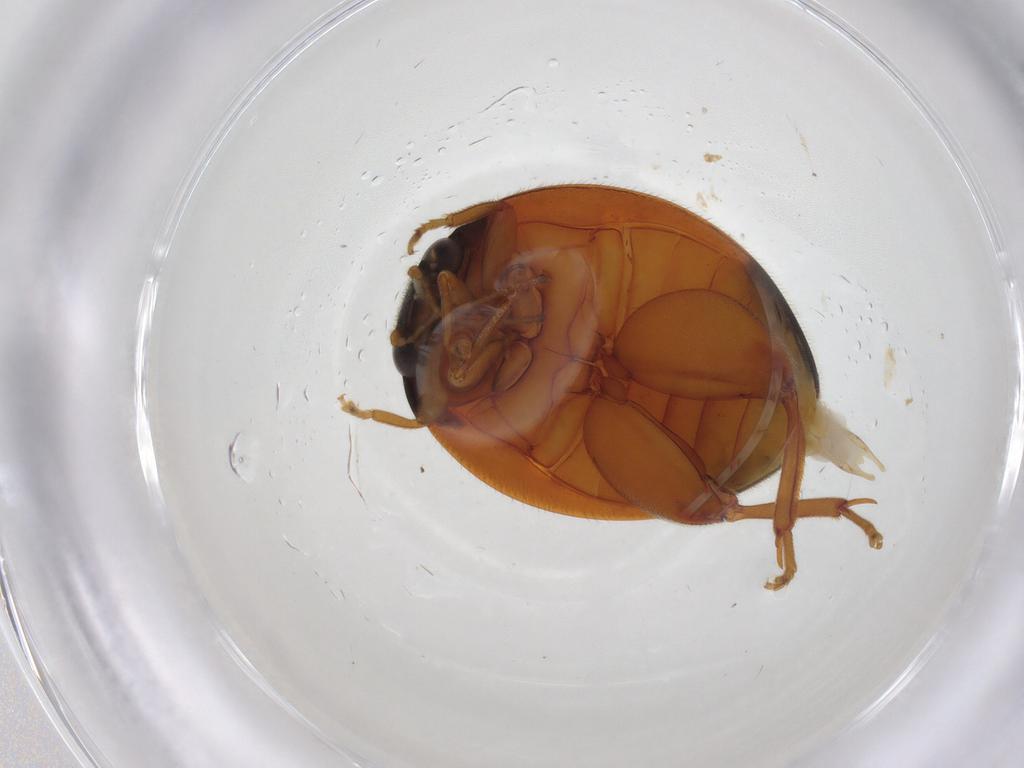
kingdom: Animalia
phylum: Arthropoda
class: Insecta
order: Coleoptera
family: Scirtidae
